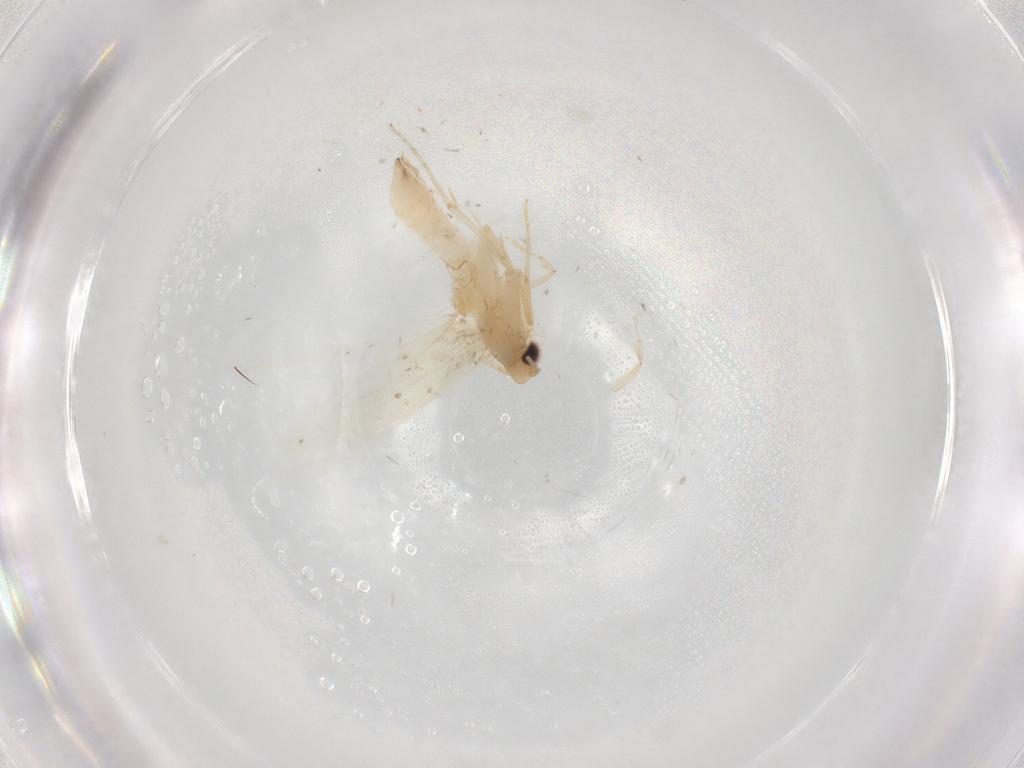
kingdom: Animalia
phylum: Arthropoda
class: Insecta
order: Lepidoptera
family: Tineidae
